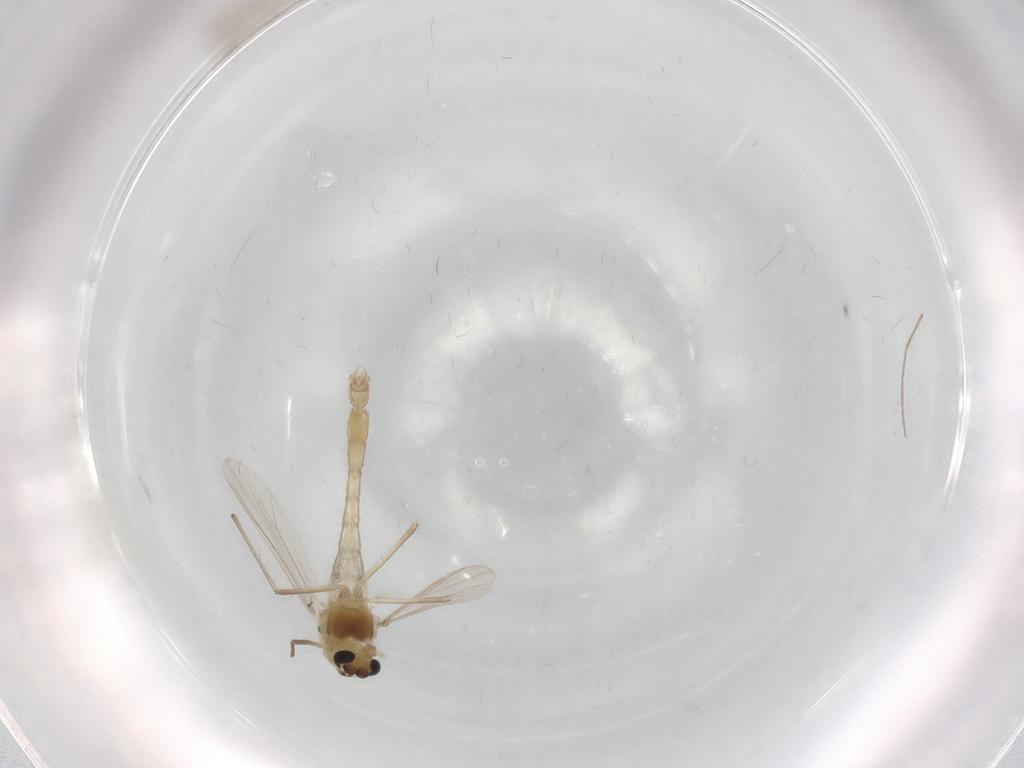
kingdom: Animalia
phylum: Arthropoda
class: Insecta
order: Diptera
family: Chironomidae
